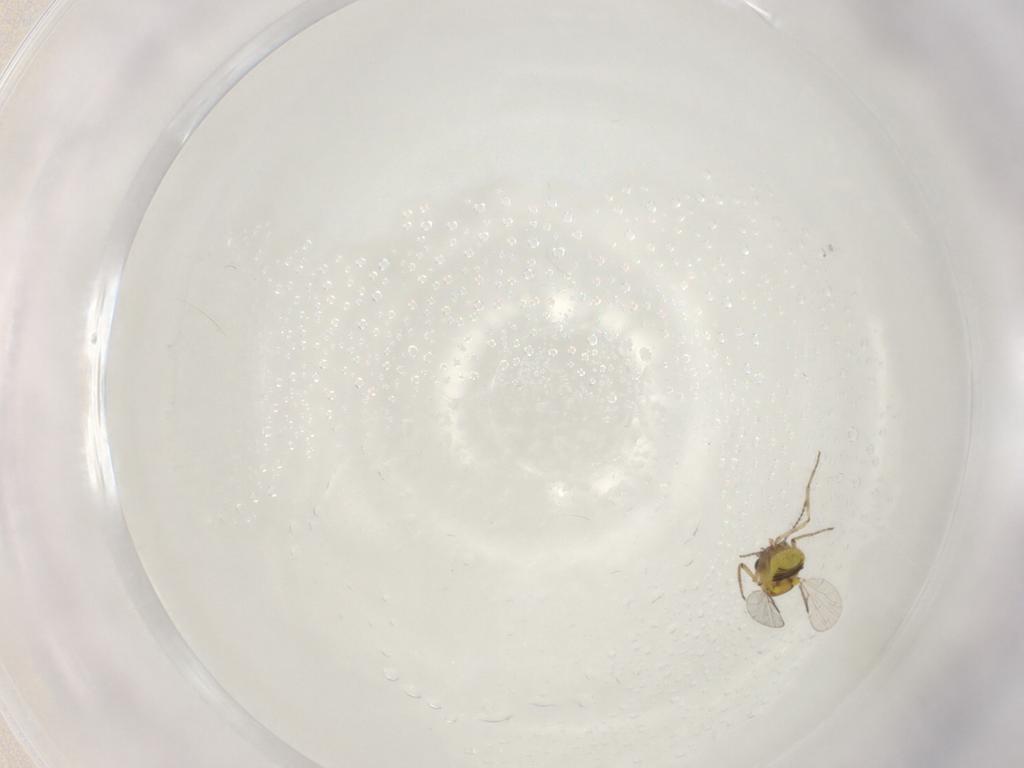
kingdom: Animalia
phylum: Arthropoda
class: Insecta
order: Diptera
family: Ceratopogonidae
